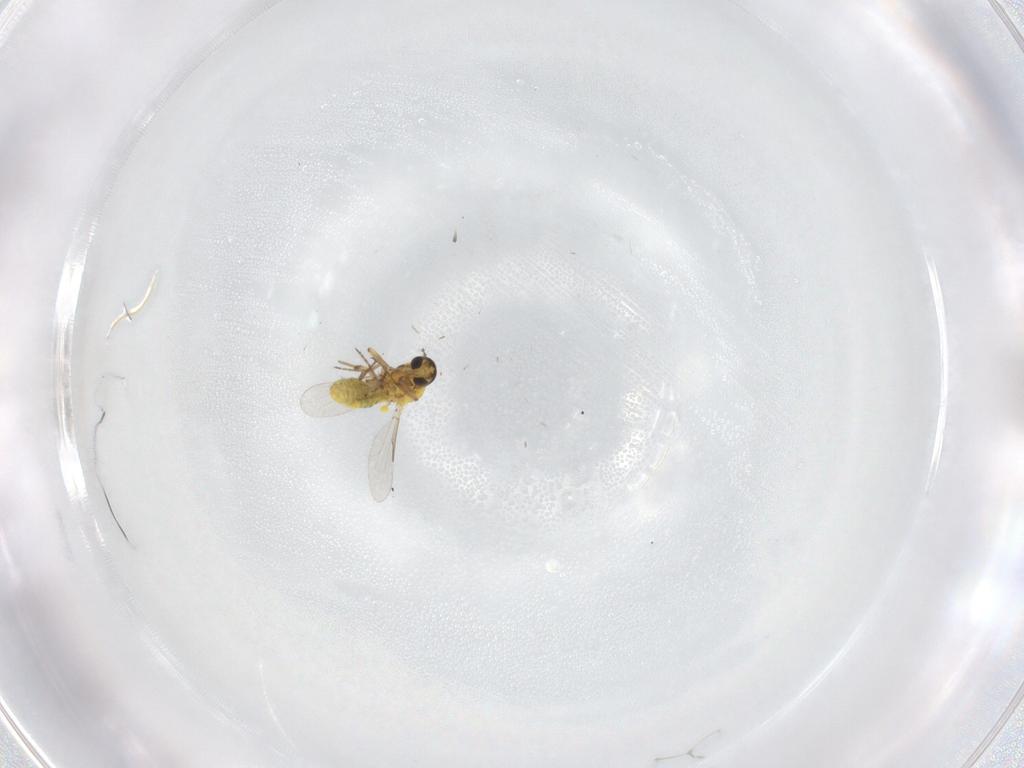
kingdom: Animalia
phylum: Arthropoda
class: Insecta
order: Diptera
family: Ceratopogonidae
